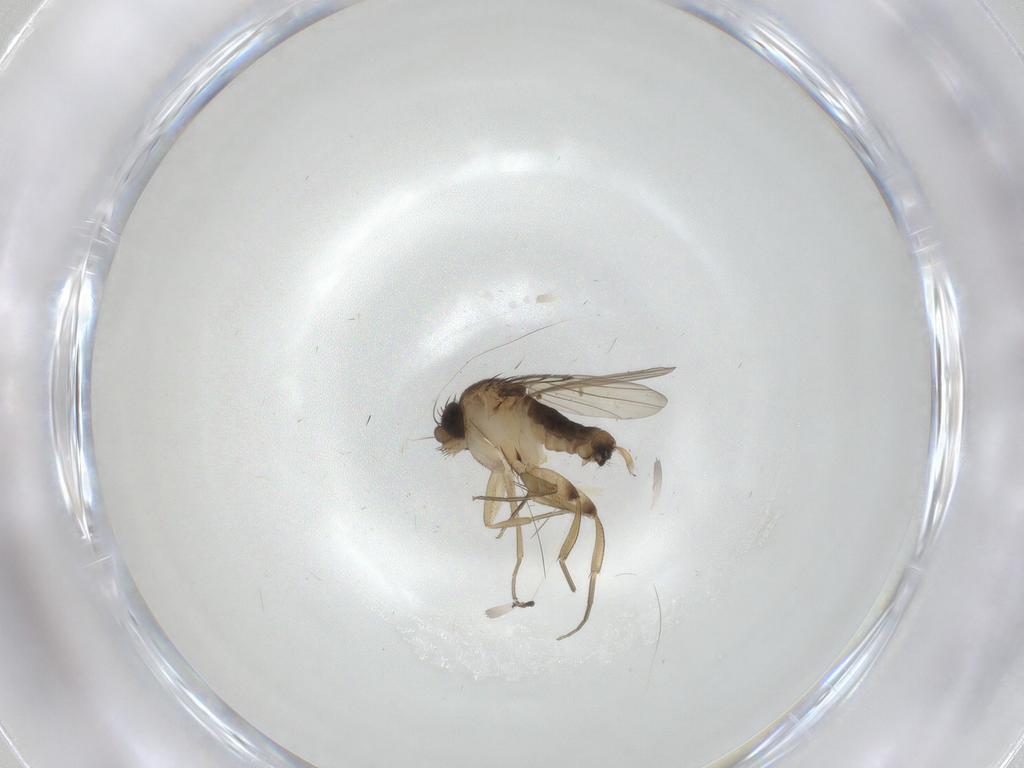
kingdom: Animalia
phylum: Arthropoda
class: Insecta
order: Diptera
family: Phoridae
